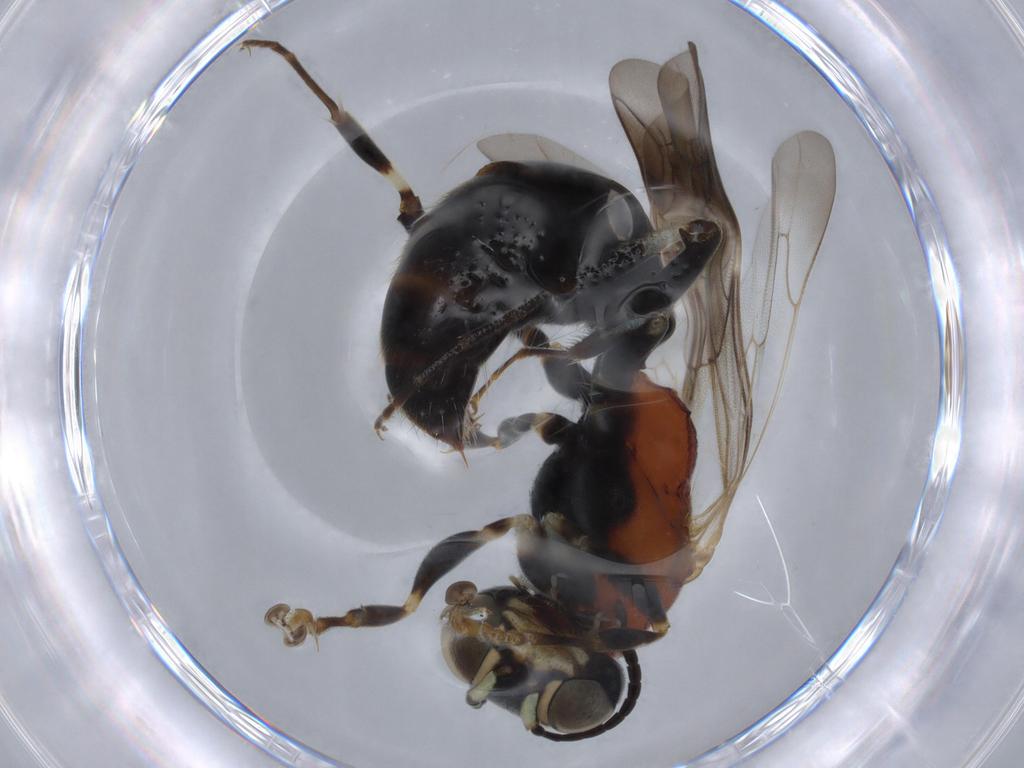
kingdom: Animalia
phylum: Arthropoda
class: Insecta
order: Hymenoptera
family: Bembicidae
